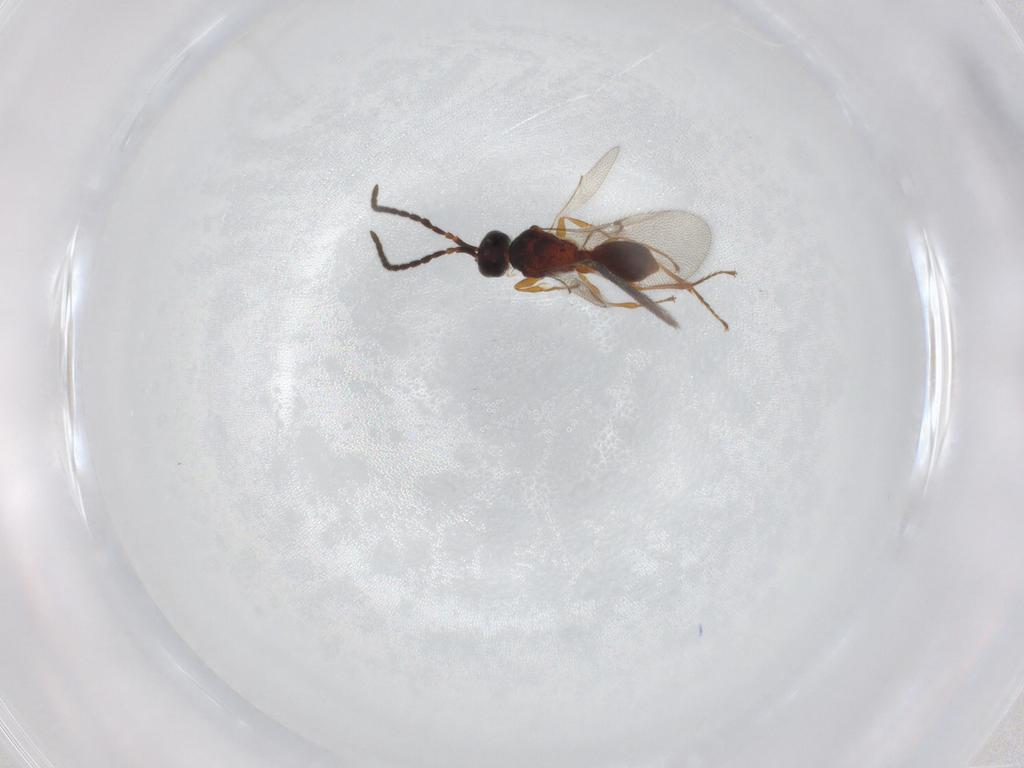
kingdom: Animalia
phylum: Arthropoda
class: Insecta
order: Hymenoptera
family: Diapriidae
